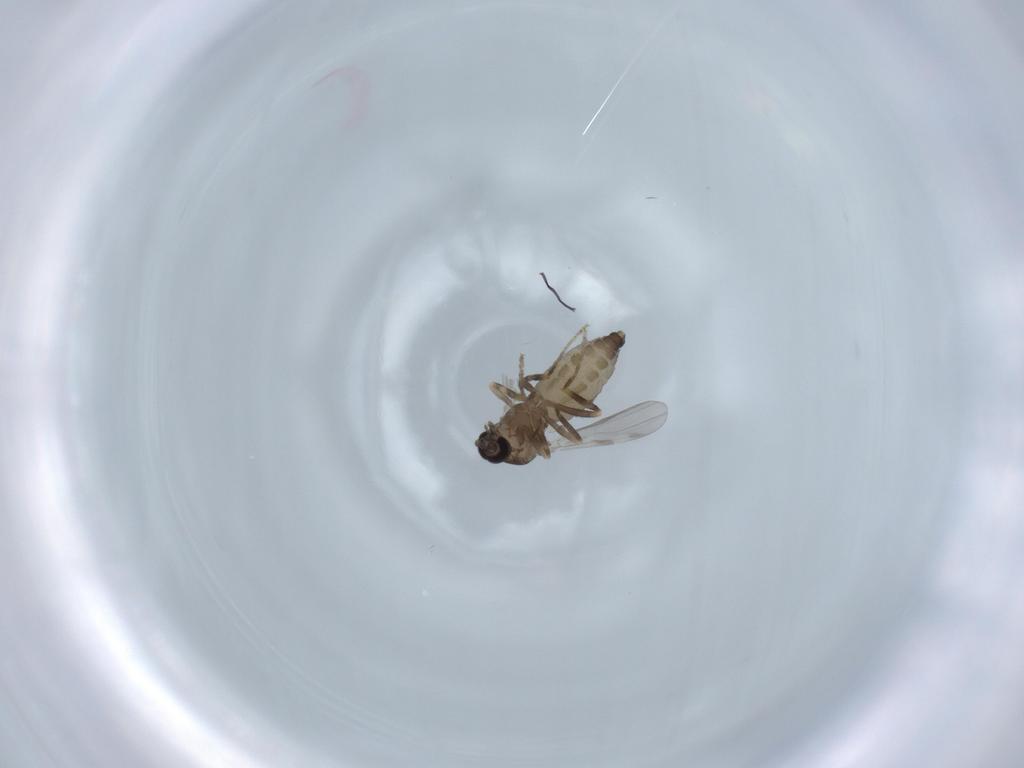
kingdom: Animalia
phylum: Arthropoda
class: Insecta
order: Diptera
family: Ceratopogonidae
